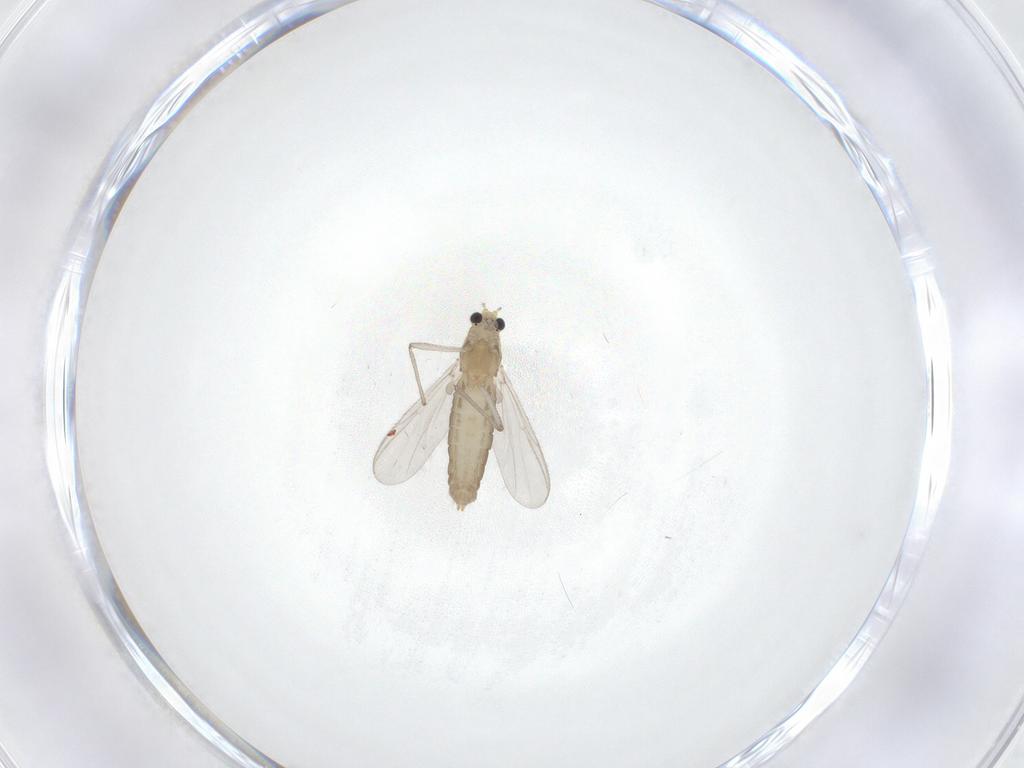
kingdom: Animalia
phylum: Arthropoda
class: Insecta
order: Diptera
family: Chironomidae
